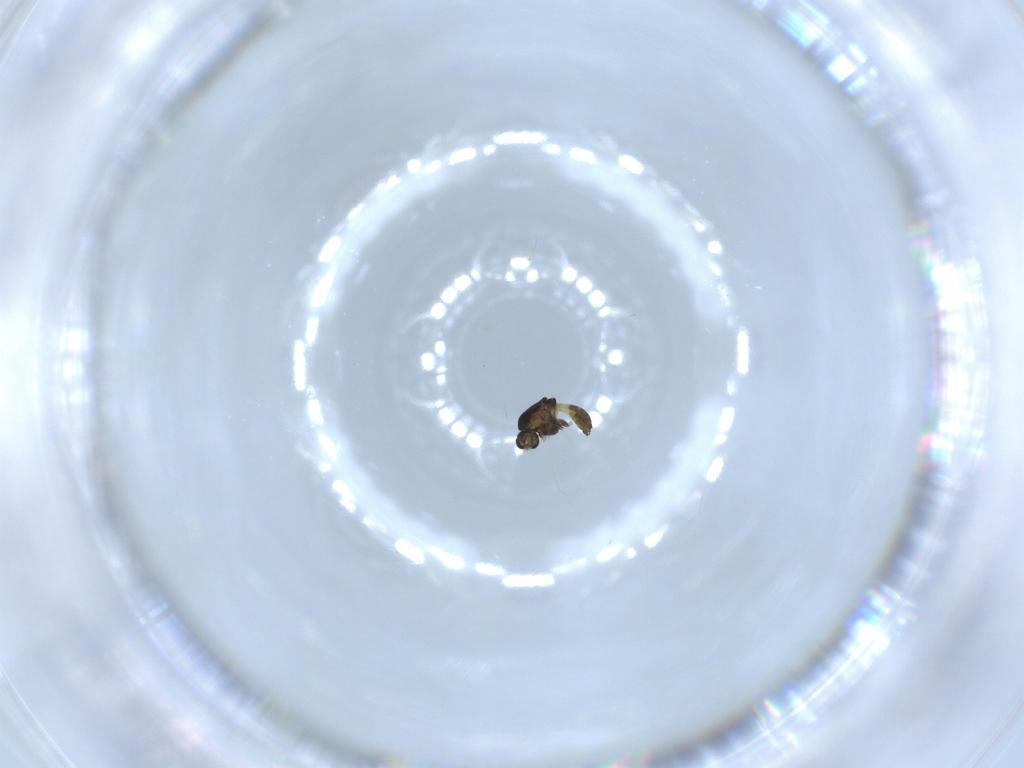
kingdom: Animalia
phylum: Arthropoda
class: Insecta
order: Diptera
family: Chironomidae
